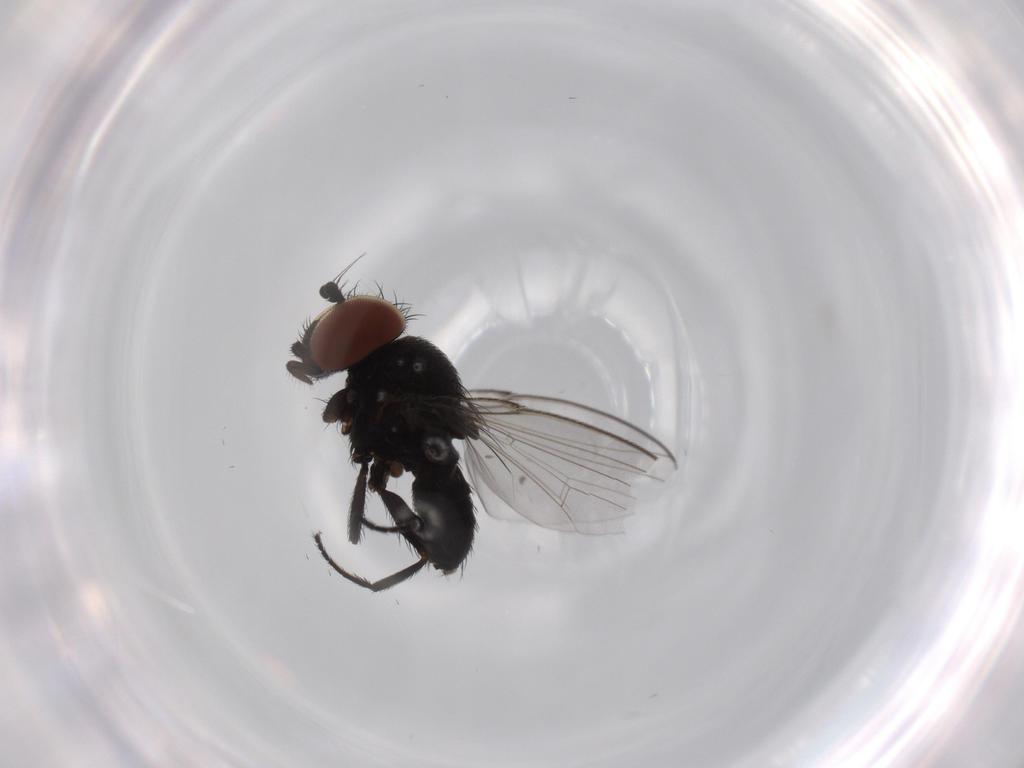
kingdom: Animalia
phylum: Arthropoda
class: Insecta
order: Diptera
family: Milichiidae
